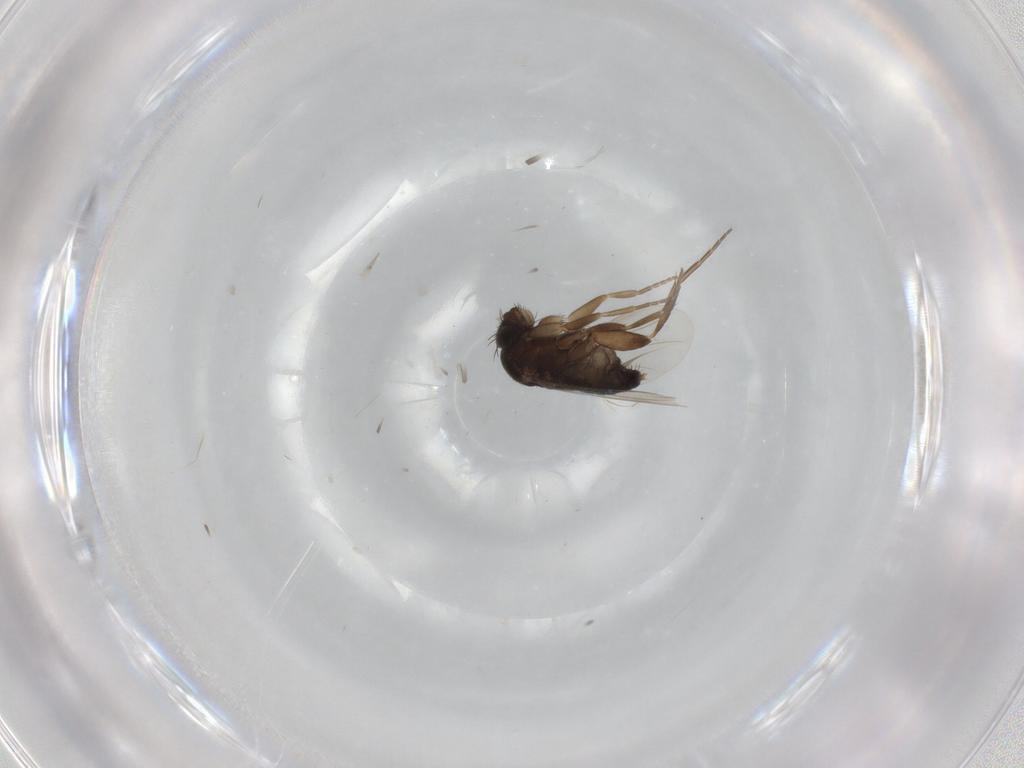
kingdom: Animalia
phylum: Arthropoda
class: Insecta
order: Diptera
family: Phoridae
